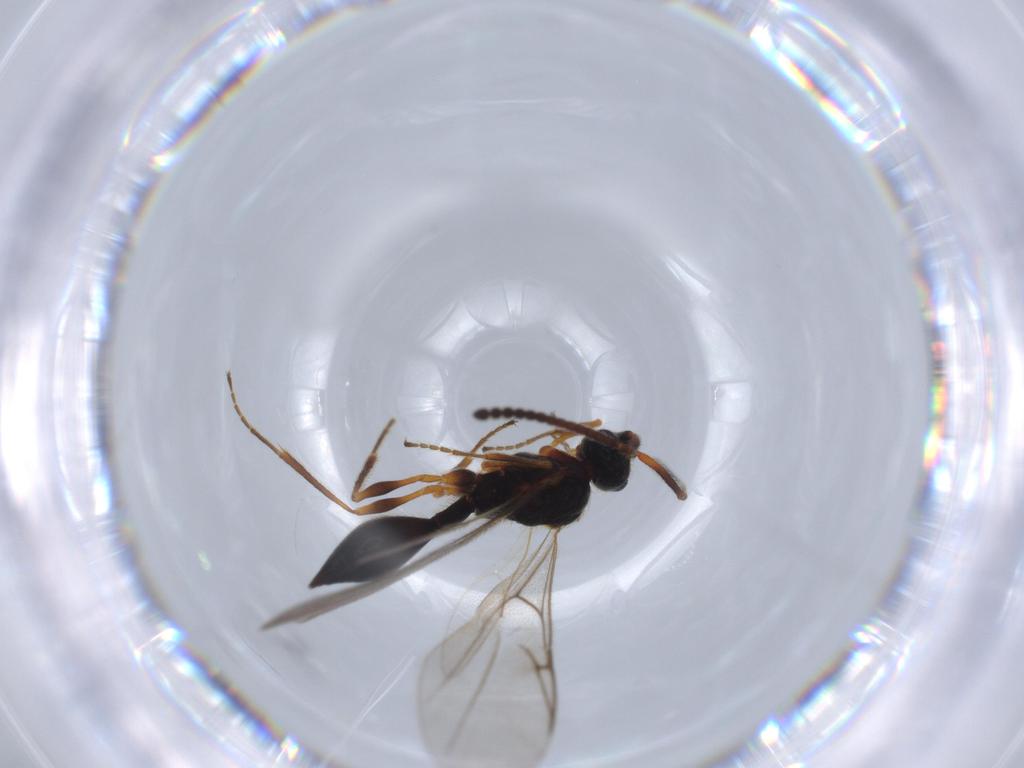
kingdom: Animalia
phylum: Arthropoda
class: Insecta
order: Hymenoptera
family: Diapriidae
